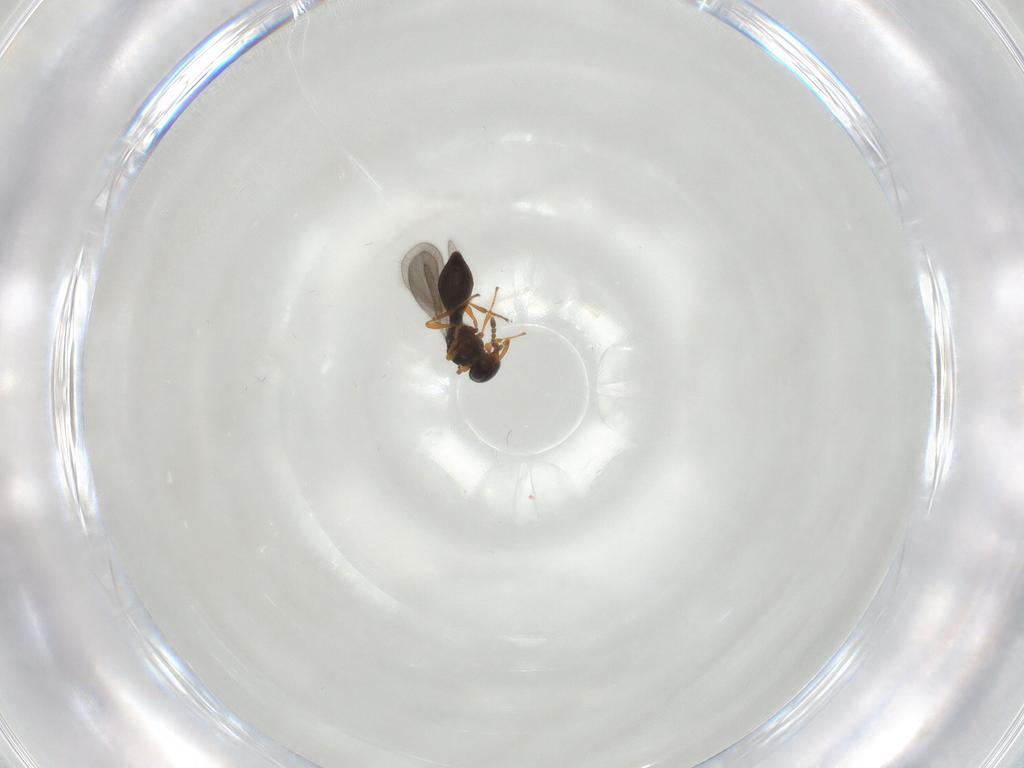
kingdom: Animalia
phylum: Arthropoda
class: Insecta
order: Hymenoptera
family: Platygastridae
